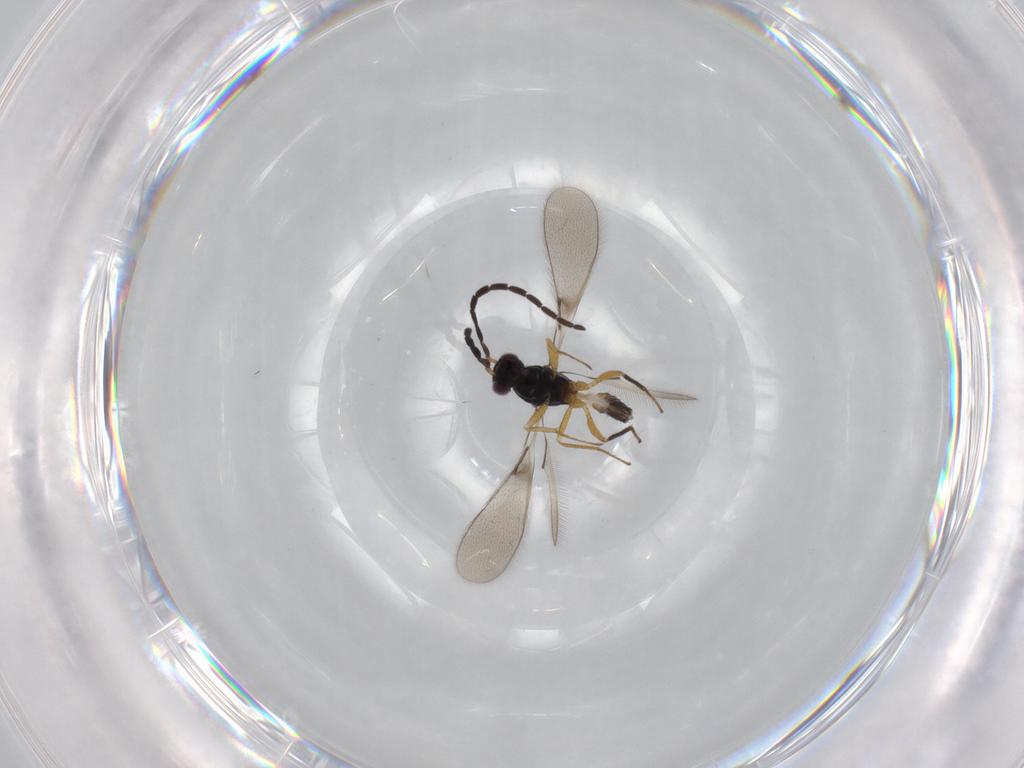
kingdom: Animalia
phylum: Arthropoda
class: Insecta
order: Hymenoptera
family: Mymaridae
